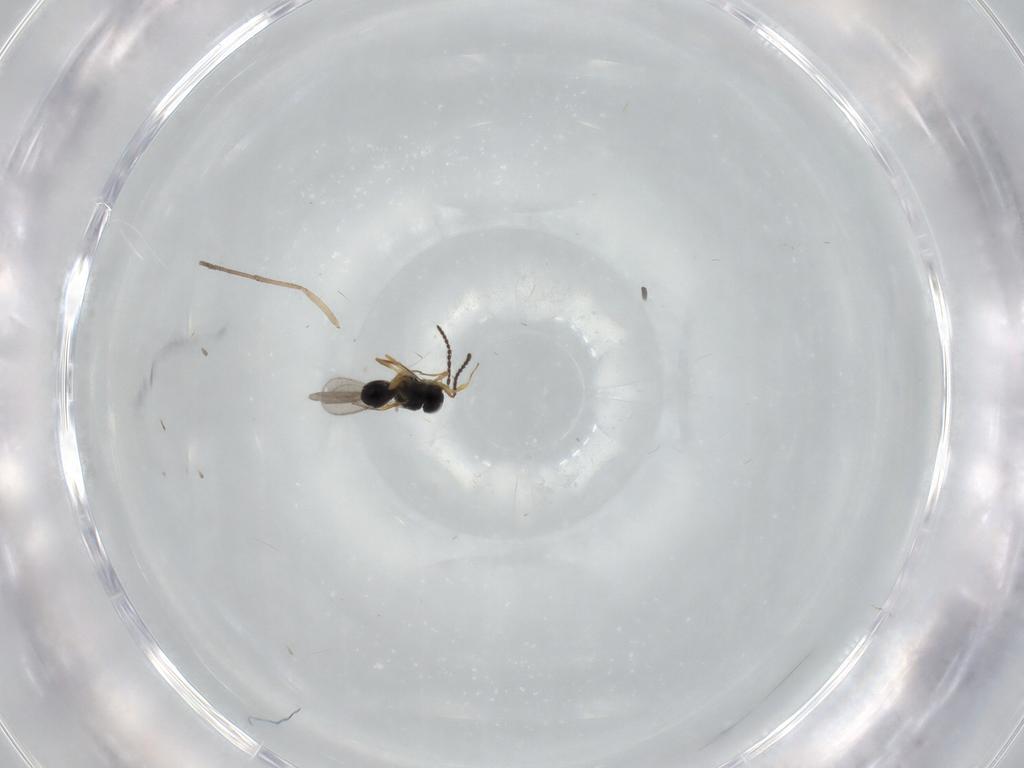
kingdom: Animalia
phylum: Arthropoda
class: Insecta
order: Hymenoptera
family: Scelionidae
